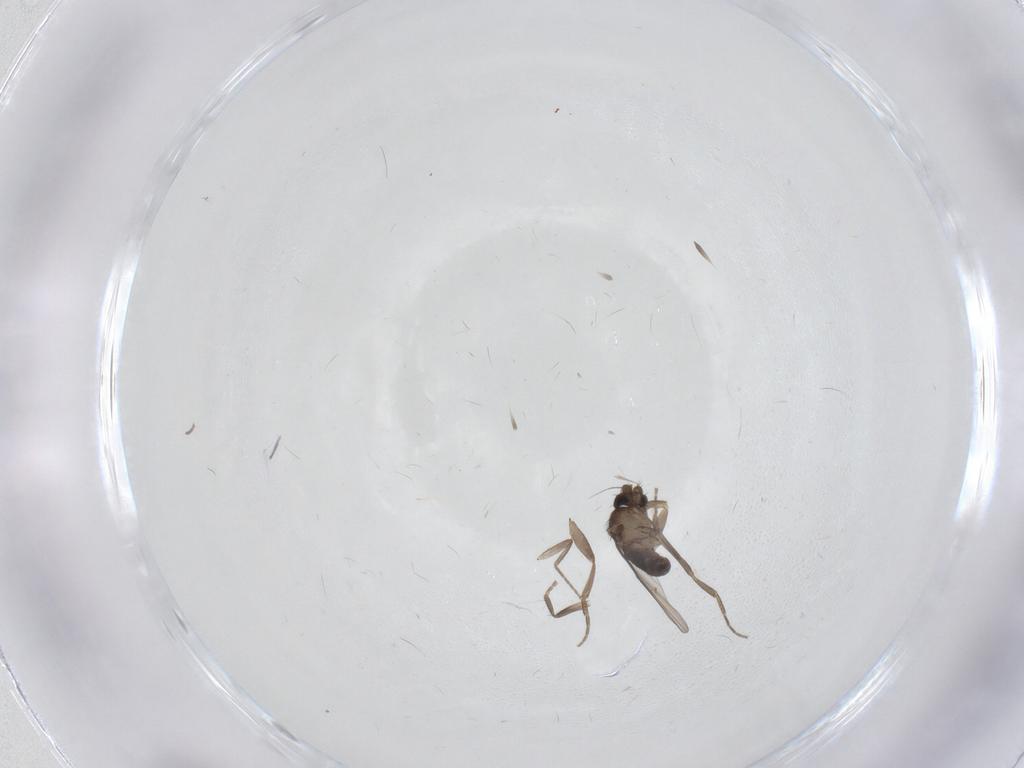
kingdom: Animalia
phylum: Arthropoda
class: Insecta
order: Diptera
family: Phoridae
